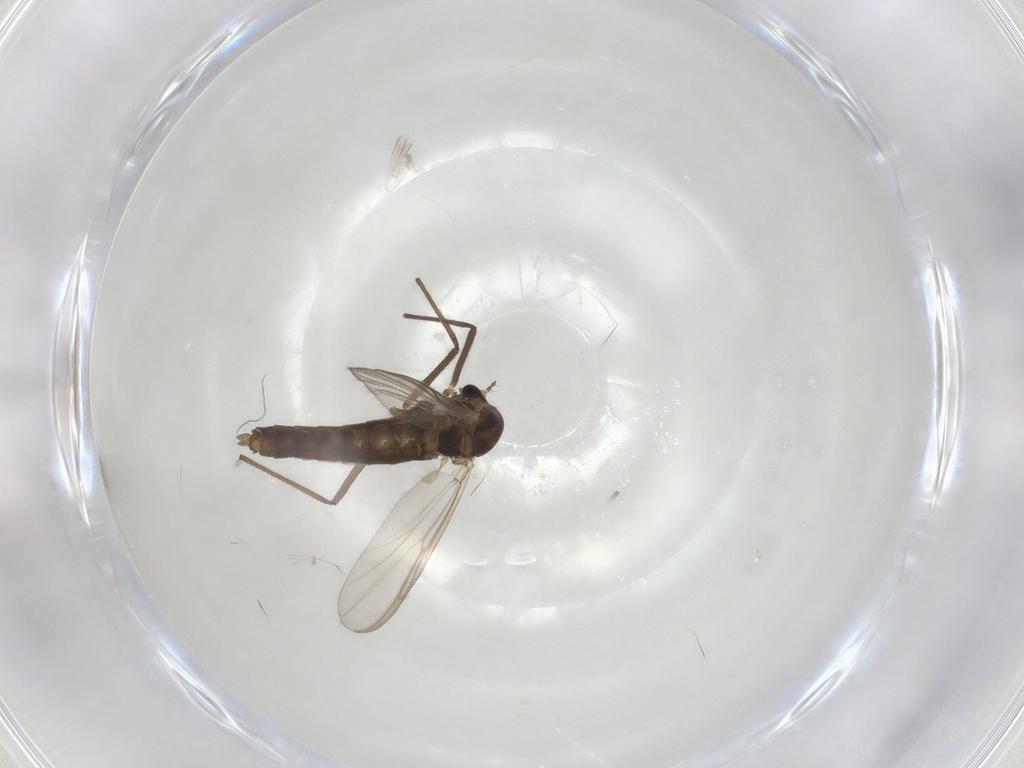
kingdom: Animalia
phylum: Arthropoda
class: Insecta
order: Diptera
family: Chironomidae
